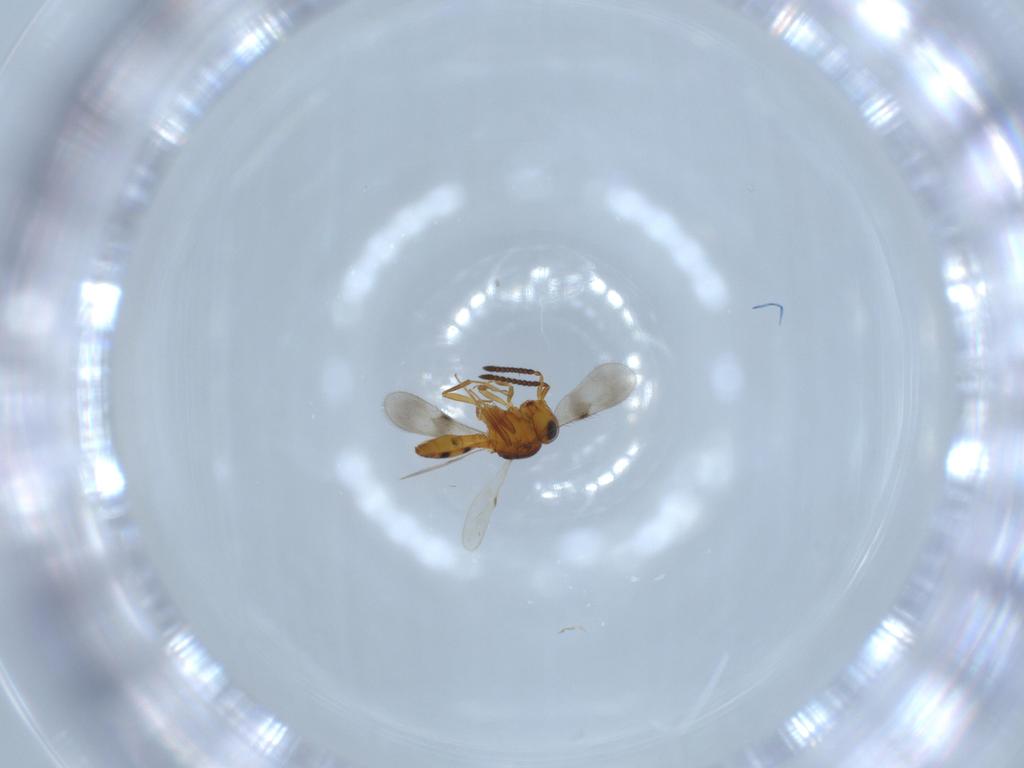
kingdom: Animalia
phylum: Arthropoda
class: Insecta
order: Hymenoptera
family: Scelionidae
